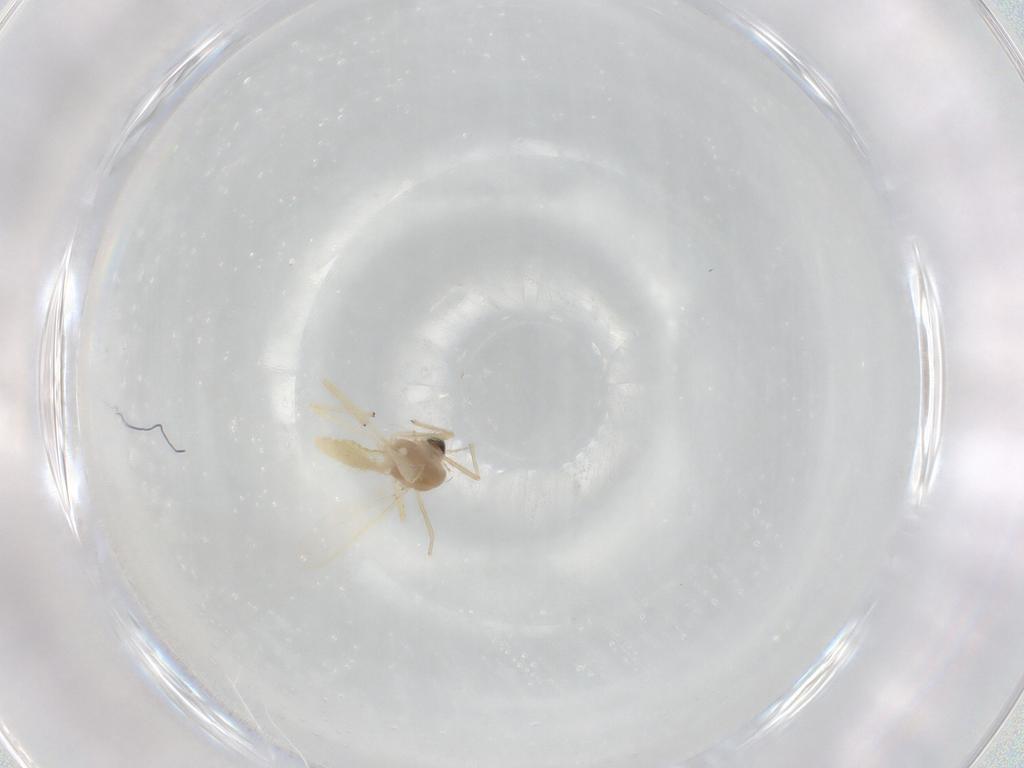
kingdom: Animalia
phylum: Arthropoda
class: Insecta
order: Diptera
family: Chironomidae
